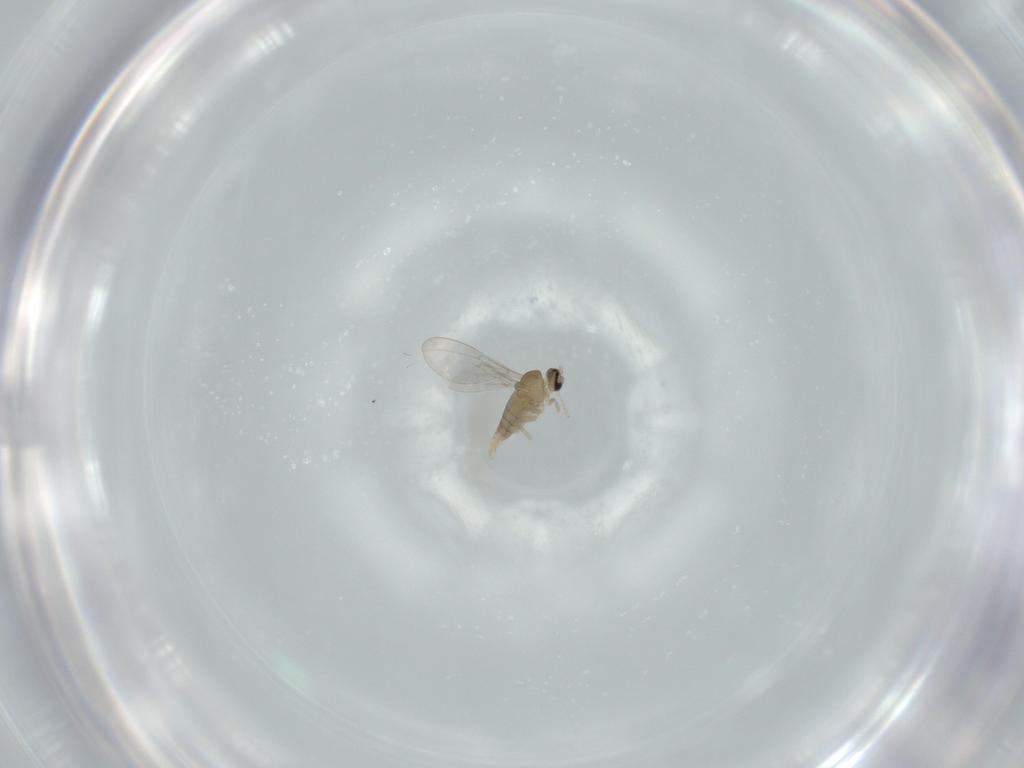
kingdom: Animalia
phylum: Arthropoda
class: Insecta
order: Diptera
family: Cecidomyiidae
